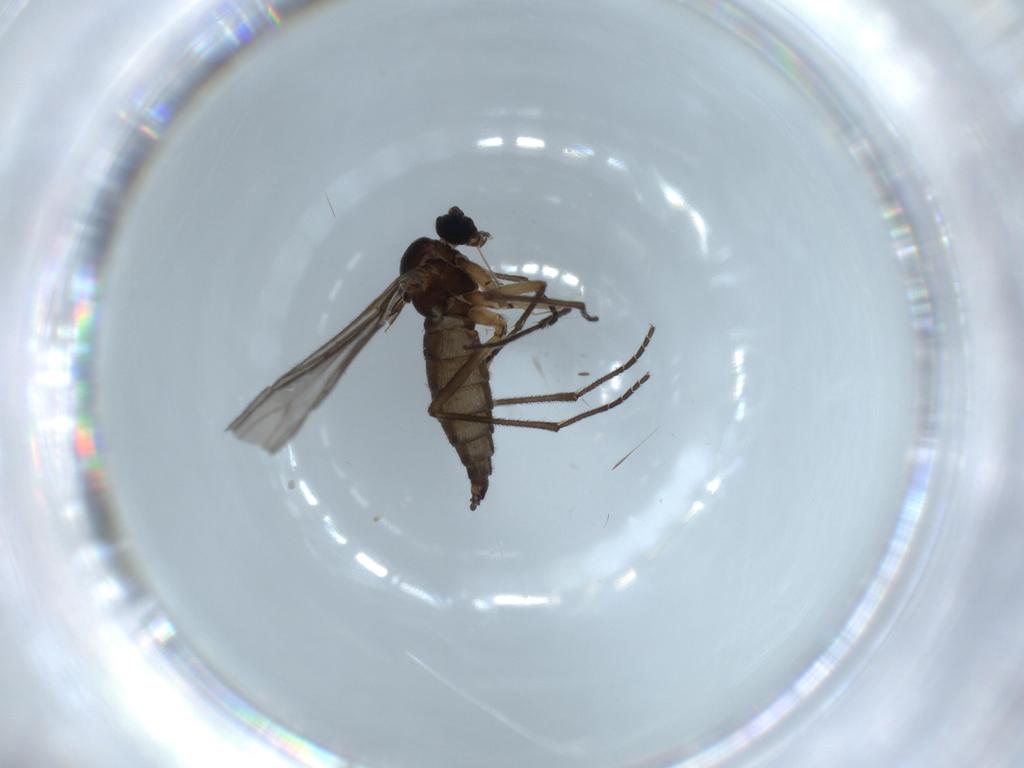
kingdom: Animalia
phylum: Arthropoda
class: Insecta
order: Diptera
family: Sciaridae
